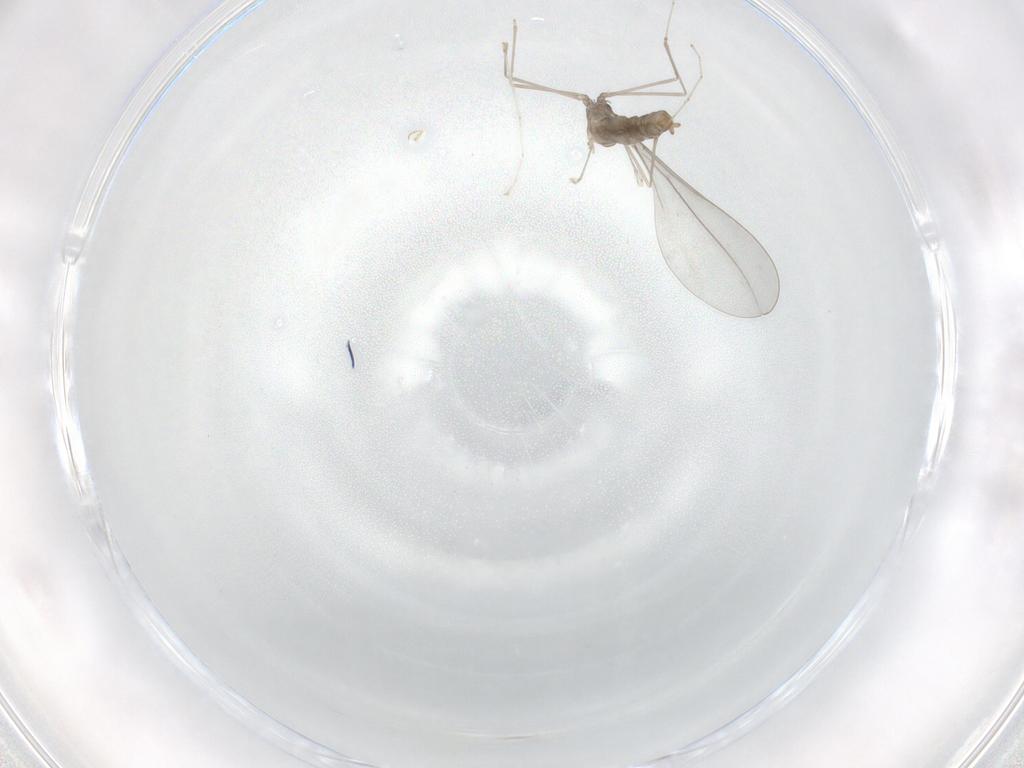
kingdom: Animalia
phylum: Arthropoda
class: Insecta
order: Diptera
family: Cecidomyiidae
